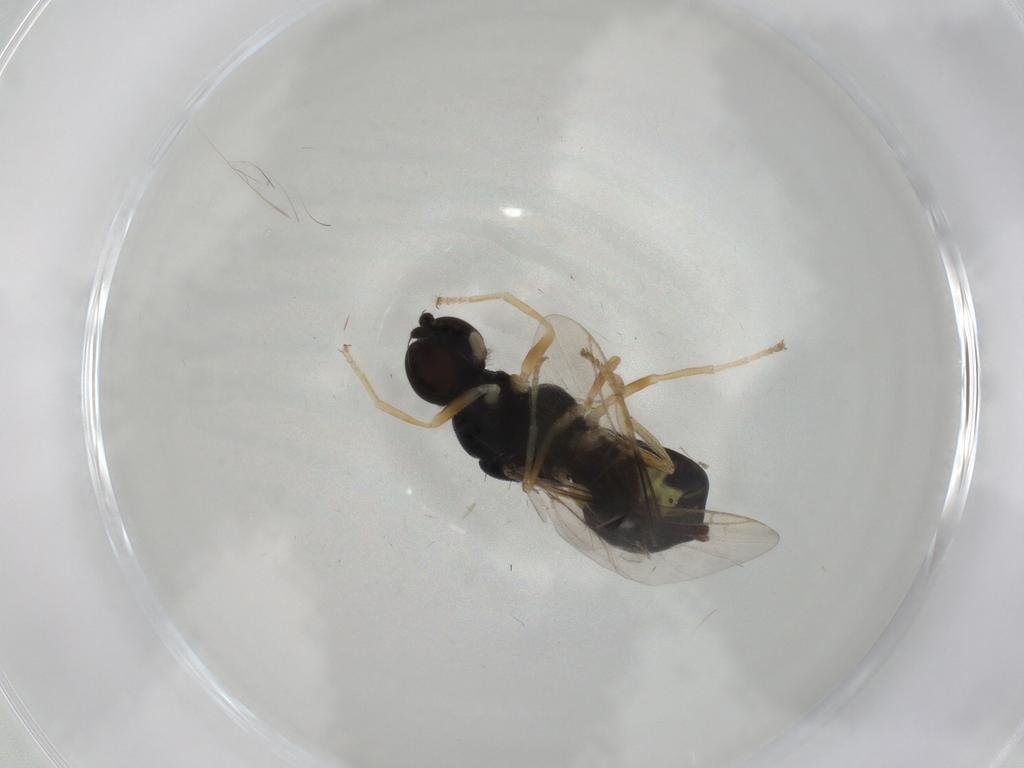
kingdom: Animalia
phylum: Arthropoda
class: Insecta
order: Diptera
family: Stratiomyidae
